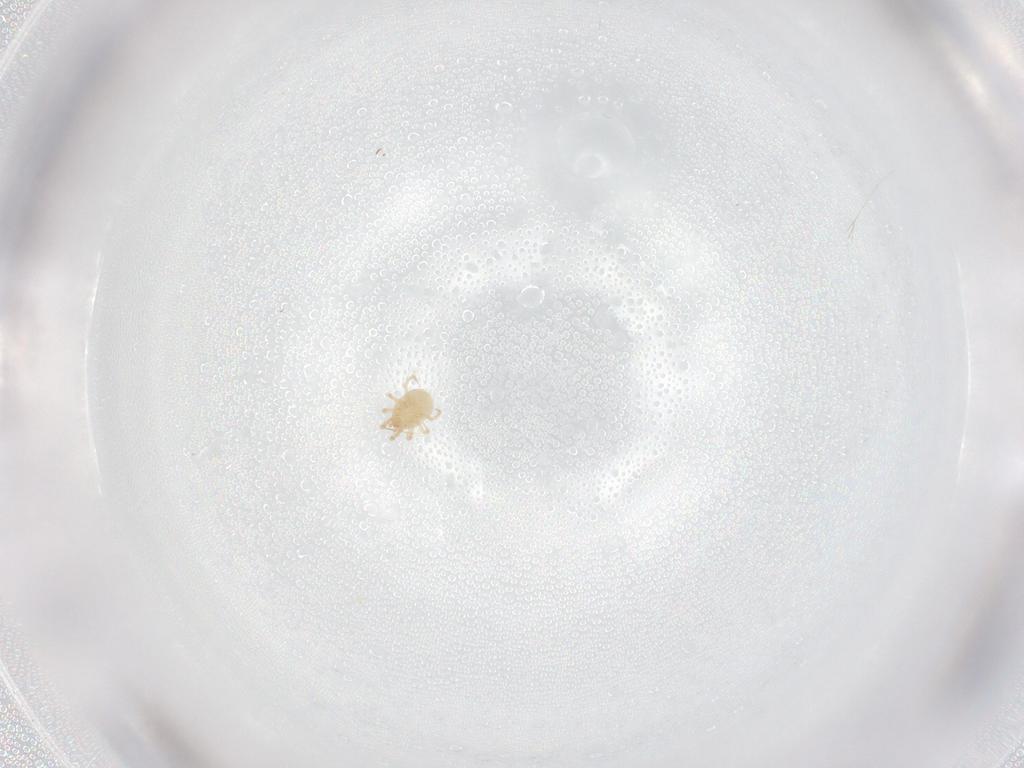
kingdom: Animalia
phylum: Arthropoda
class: Arachnida
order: Mesostigmata
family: Phytoseiidae
